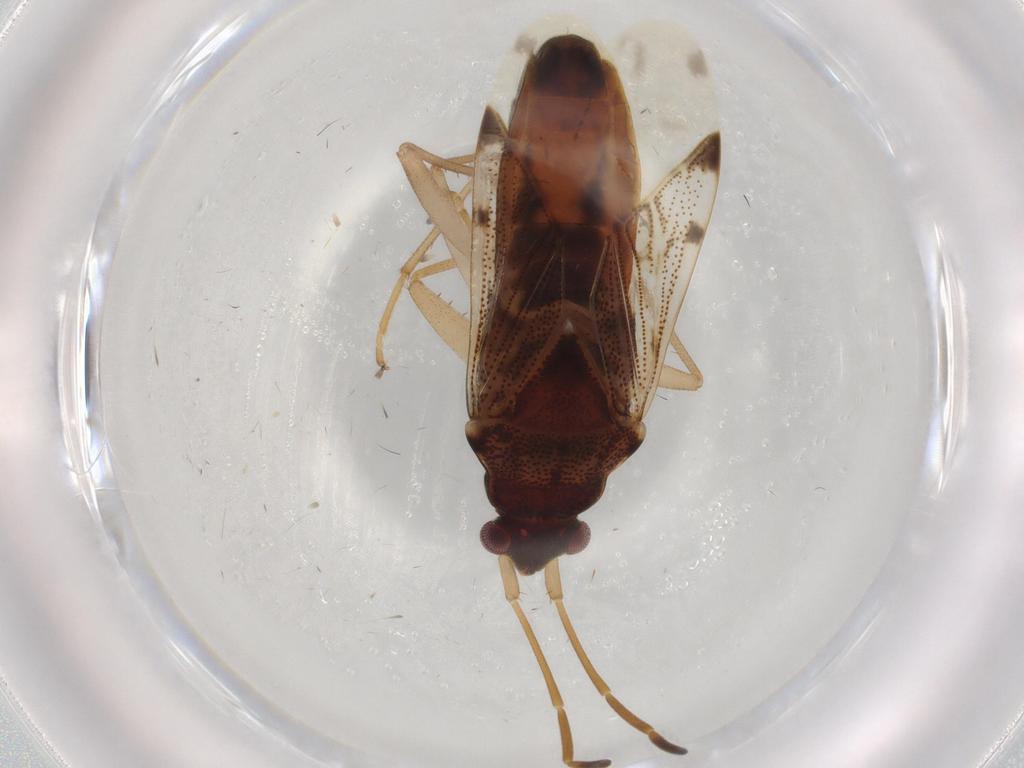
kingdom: Animalia
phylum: Arthropoda
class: Insecta
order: Hemiptera
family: Rhyparochromidae
